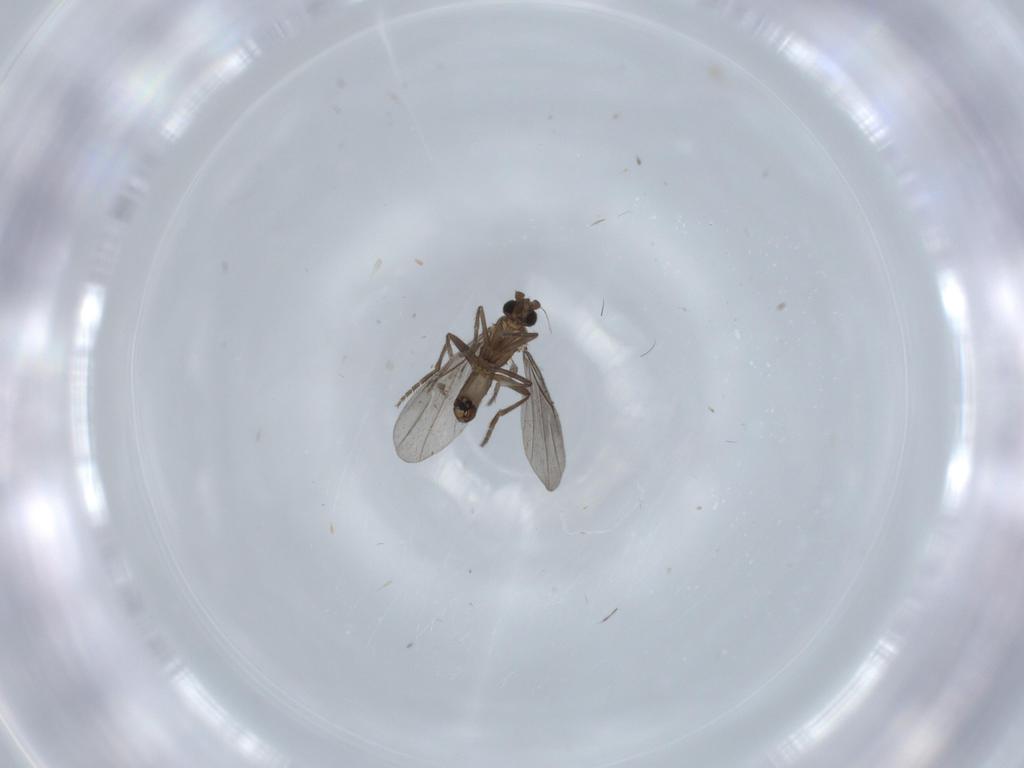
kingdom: Animalia
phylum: Arthropoda
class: Insecta
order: Diptera
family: Phoridae
